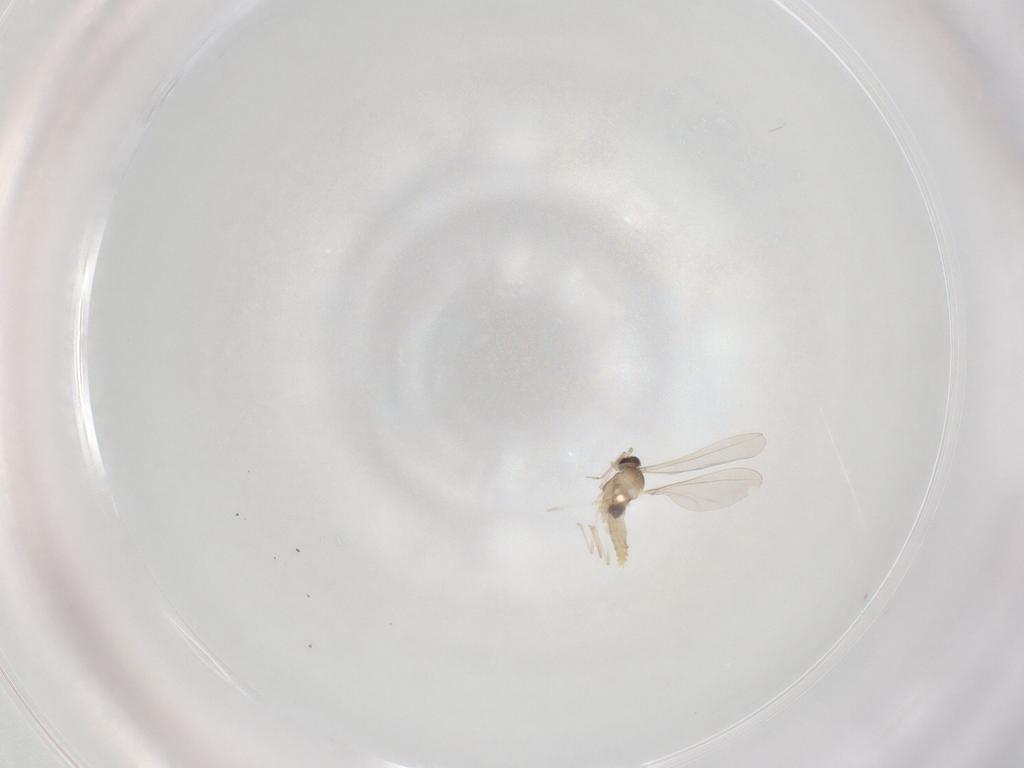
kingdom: Animalia
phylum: Arthropoda
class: Insecta
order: Diptera
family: Cecidomyiidae
